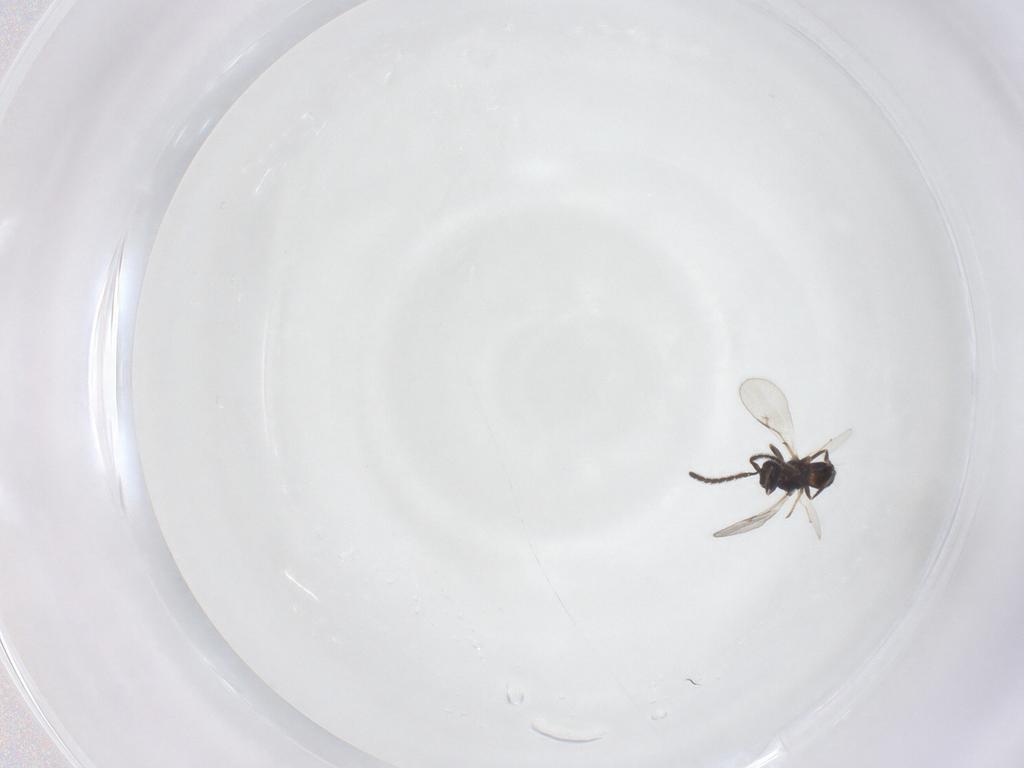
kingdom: Animalia
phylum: Arthropoda
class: Insecta
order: Hymenoptera
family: Encyrtidae
